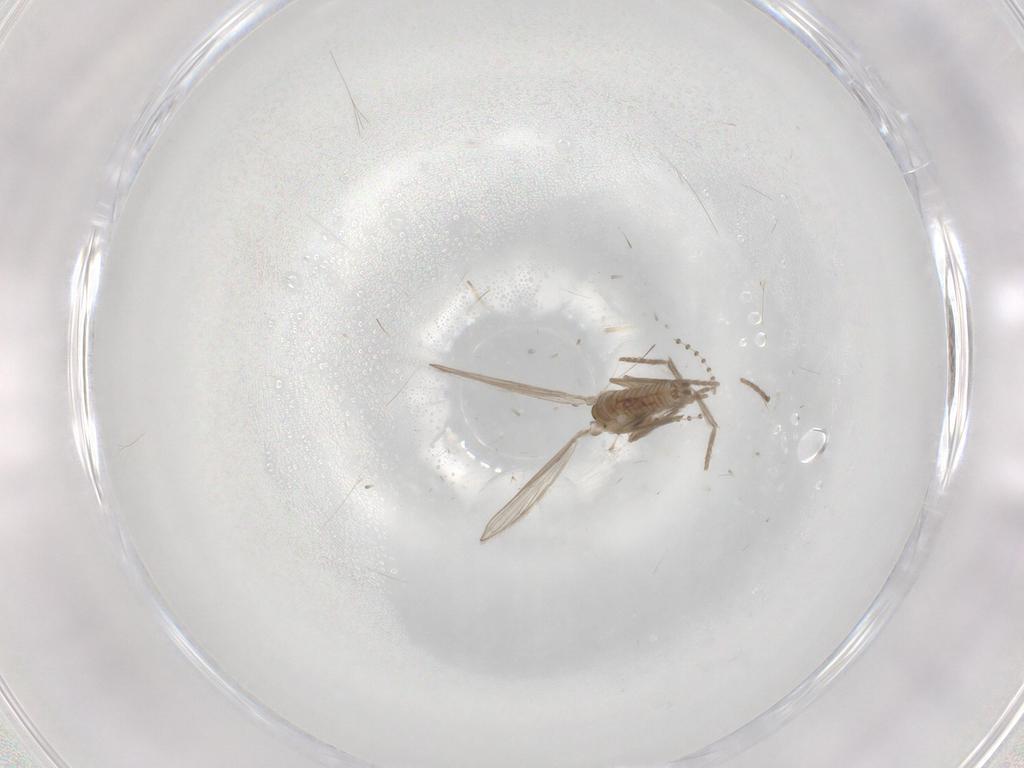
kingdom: Animalia
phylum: Arthropoda
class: Insecta
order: Diptera
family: Psychodidae
